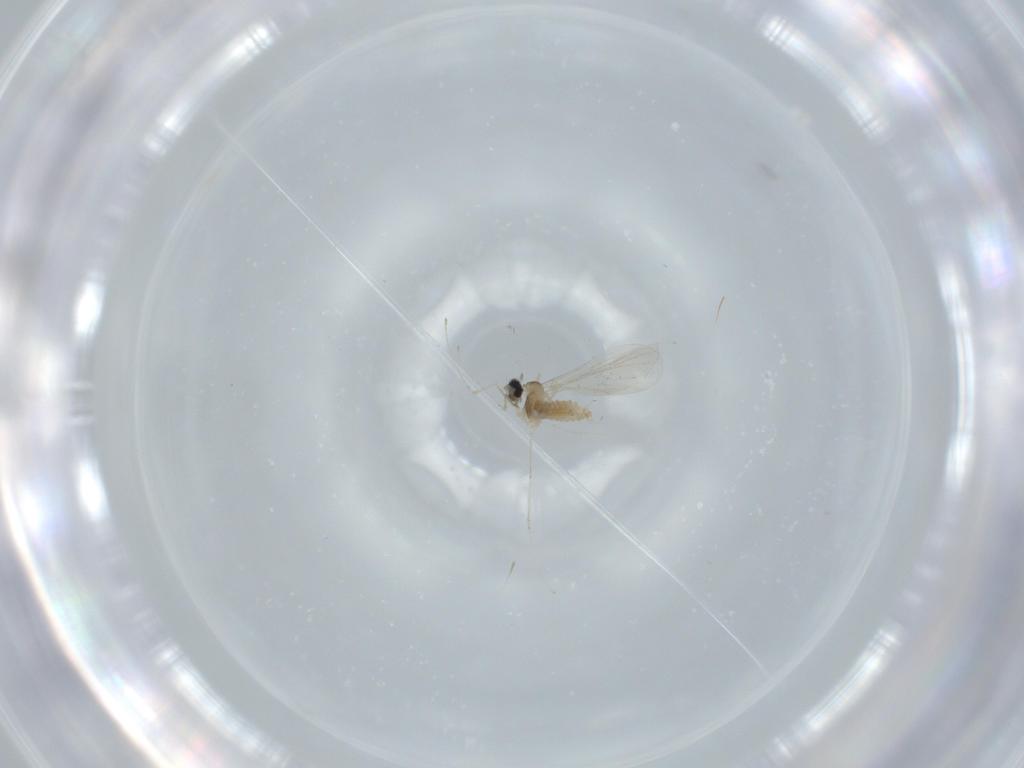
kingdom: Animalia
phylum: Arthropoda
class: Insecta
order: Diptera
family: Cecidomyiidae
